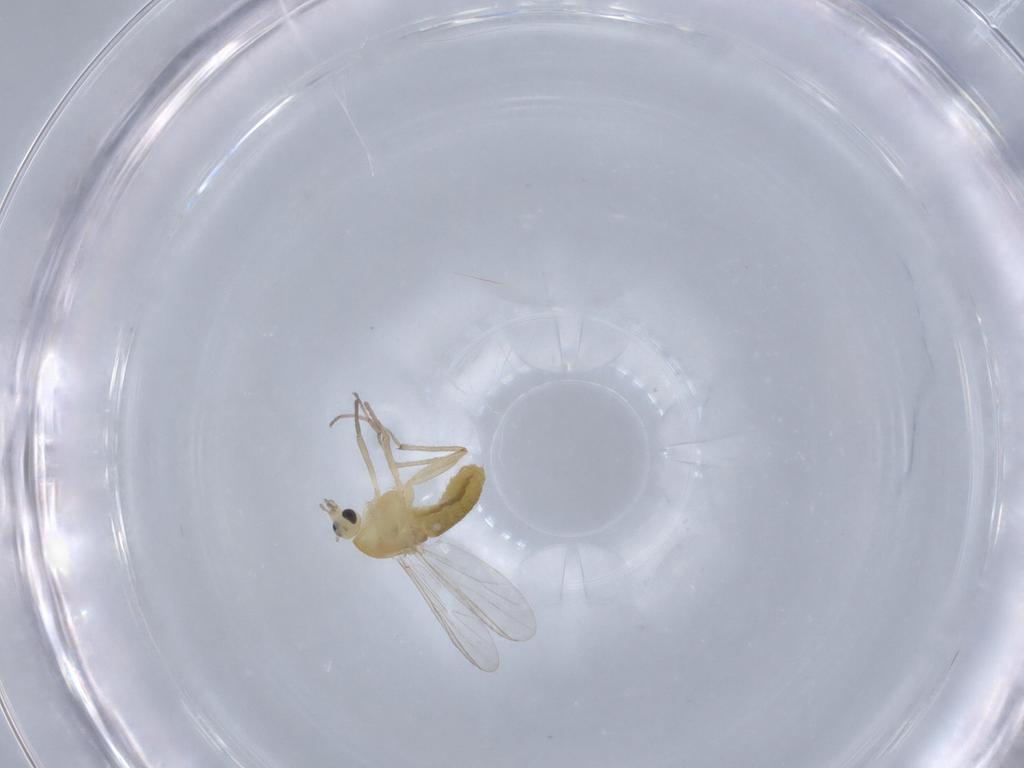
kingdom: Animalia
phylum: Arthropoda
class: Insecta
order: Diptera
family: Chironomidae
